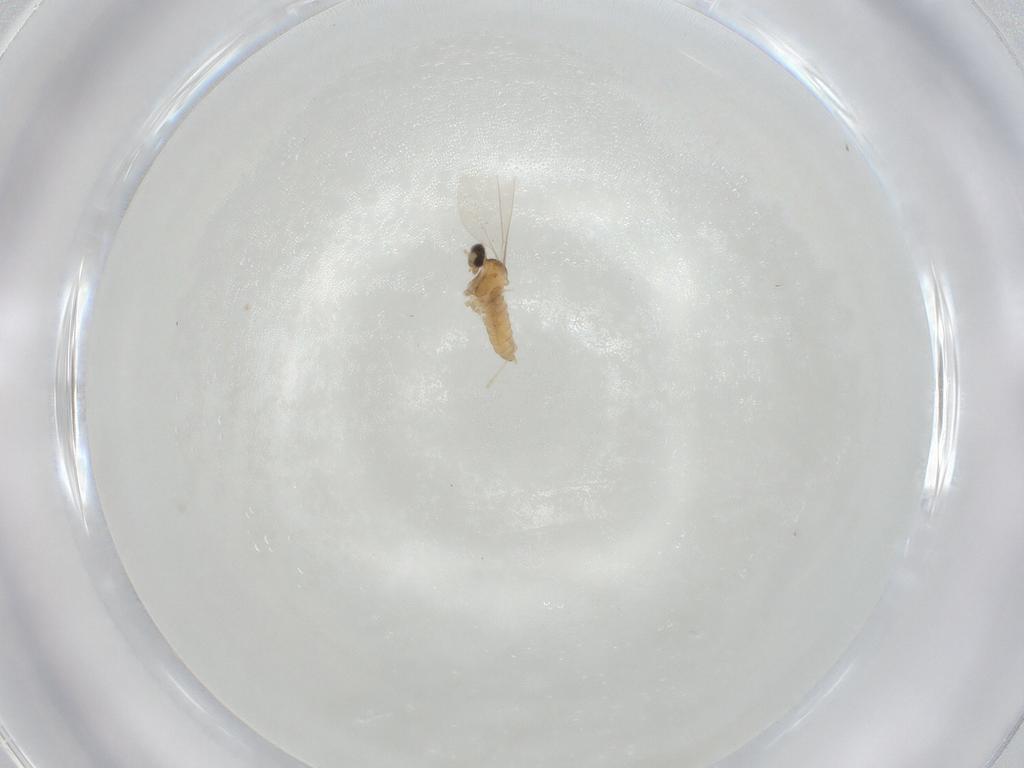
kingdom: Animalia
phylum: Arthropoda
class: Insecta
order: Diptera
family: Cecidomyiidae
